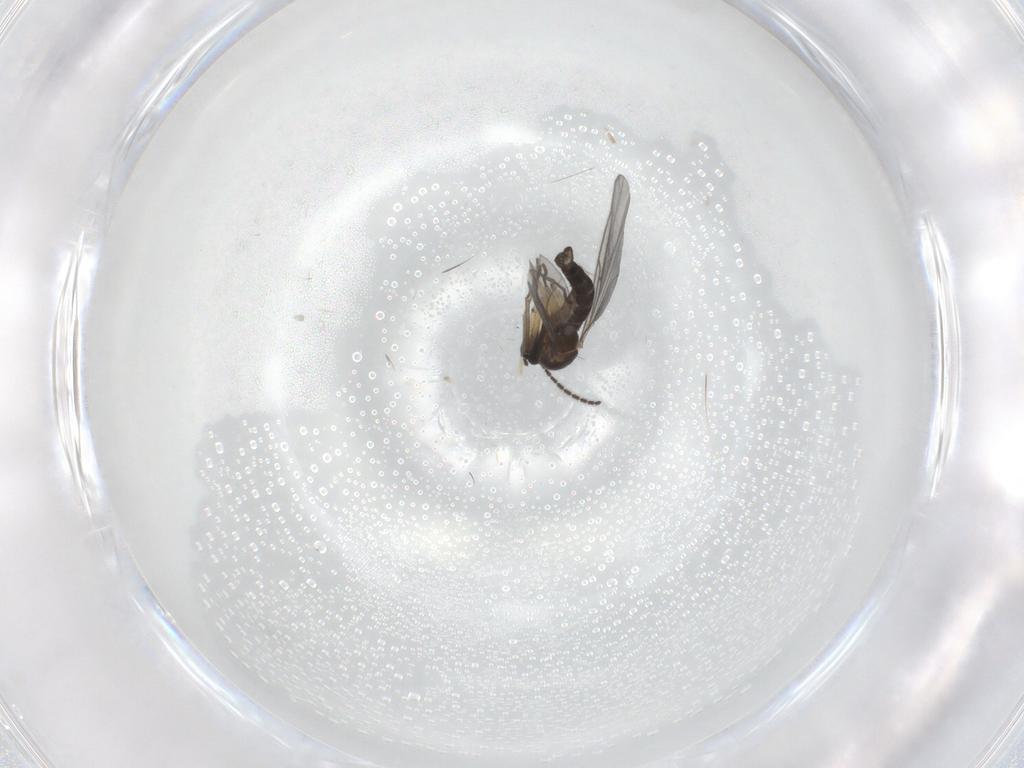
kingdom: Animalia
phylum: Arthropoda
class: Insecta
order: Diptera
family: Sciaridae
